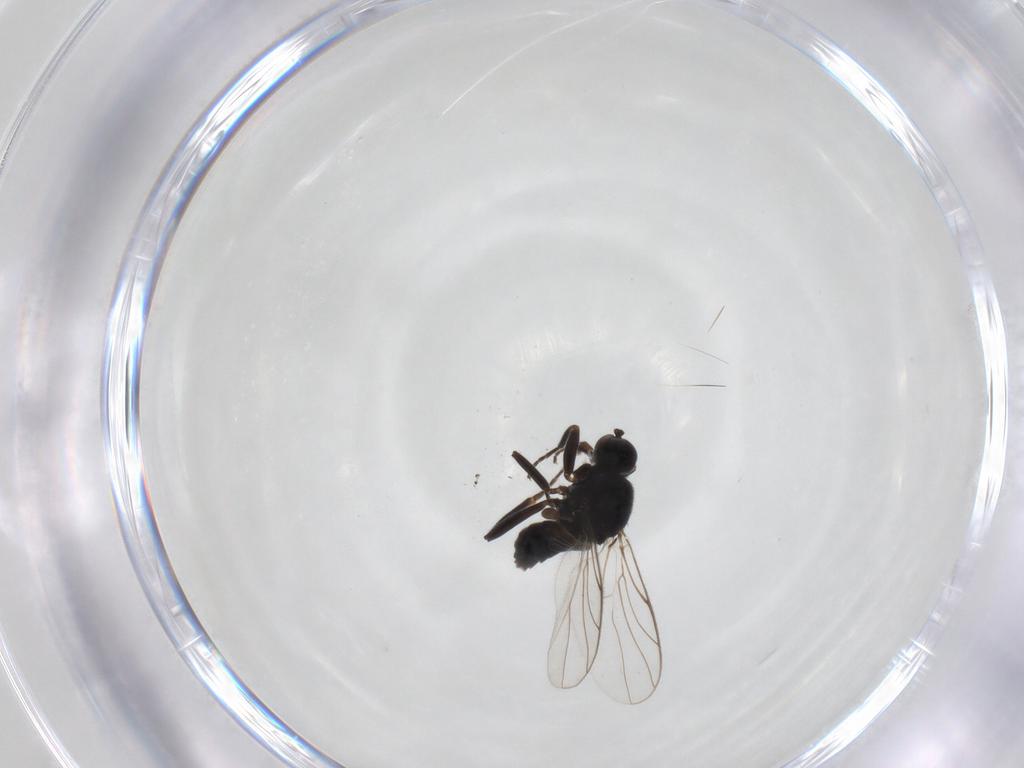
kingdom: Animalia
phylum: Arthropoda
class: Insecta
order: Diptera
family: Hybotidae
